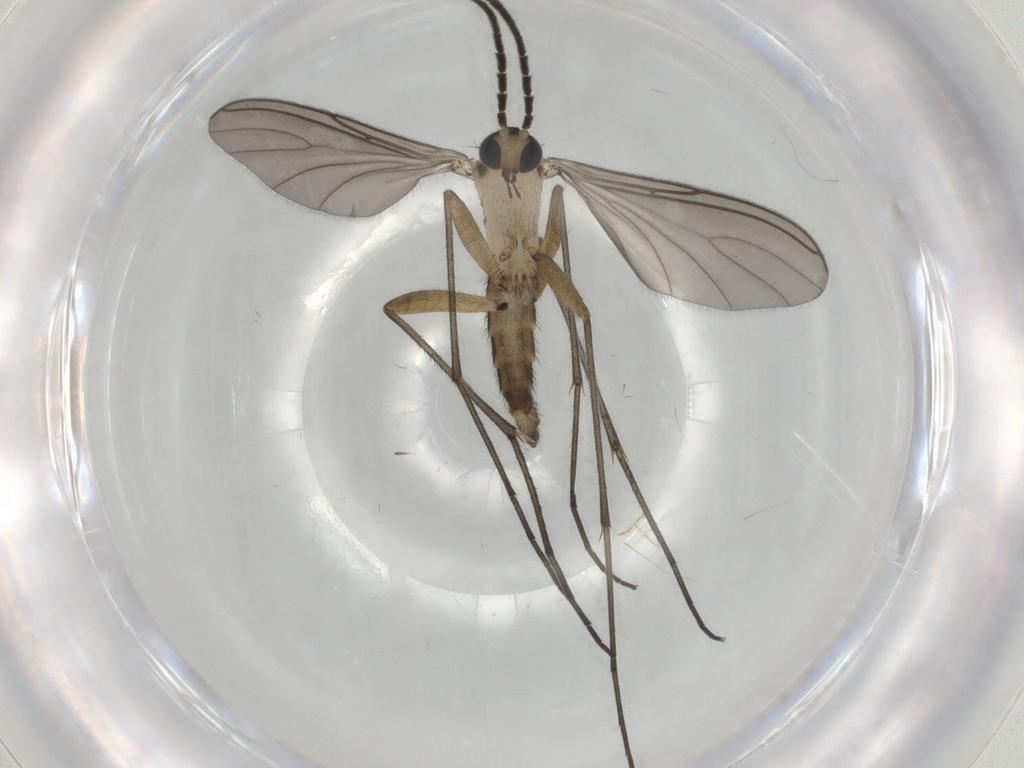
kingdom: Animalia
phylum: Arthropoda
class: Insecta
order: Diptera
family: Sciaridae
